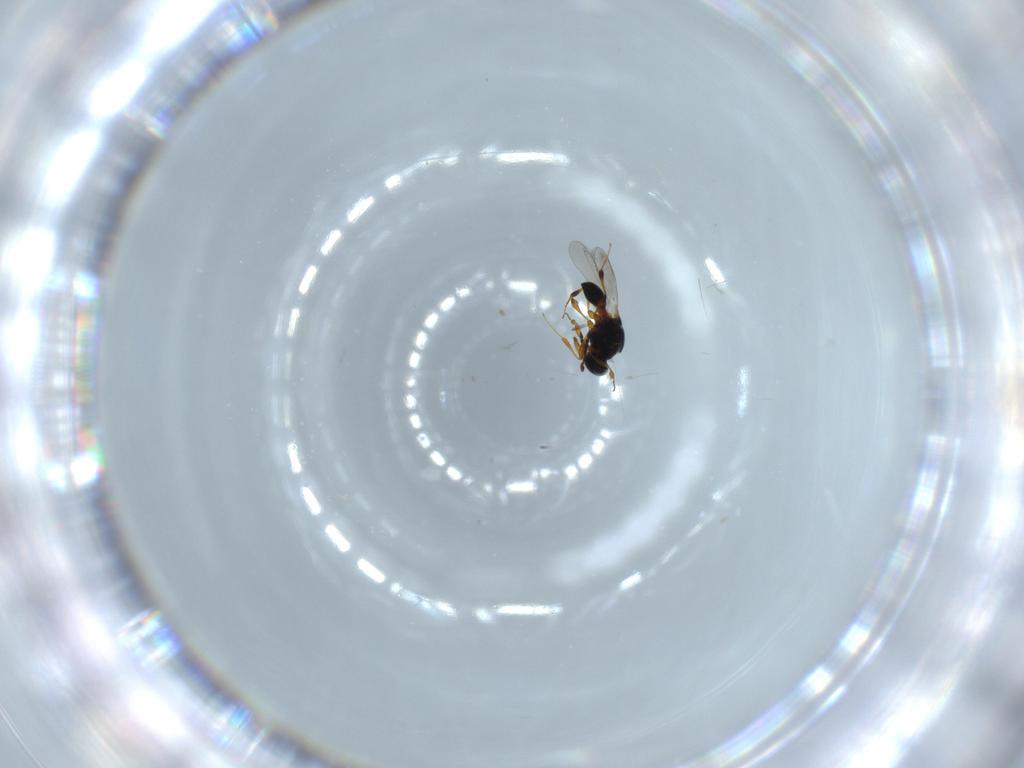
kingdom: Animalia
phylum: Arthropoda
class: Insecta
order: Hymenoptera
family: Platygastridae
